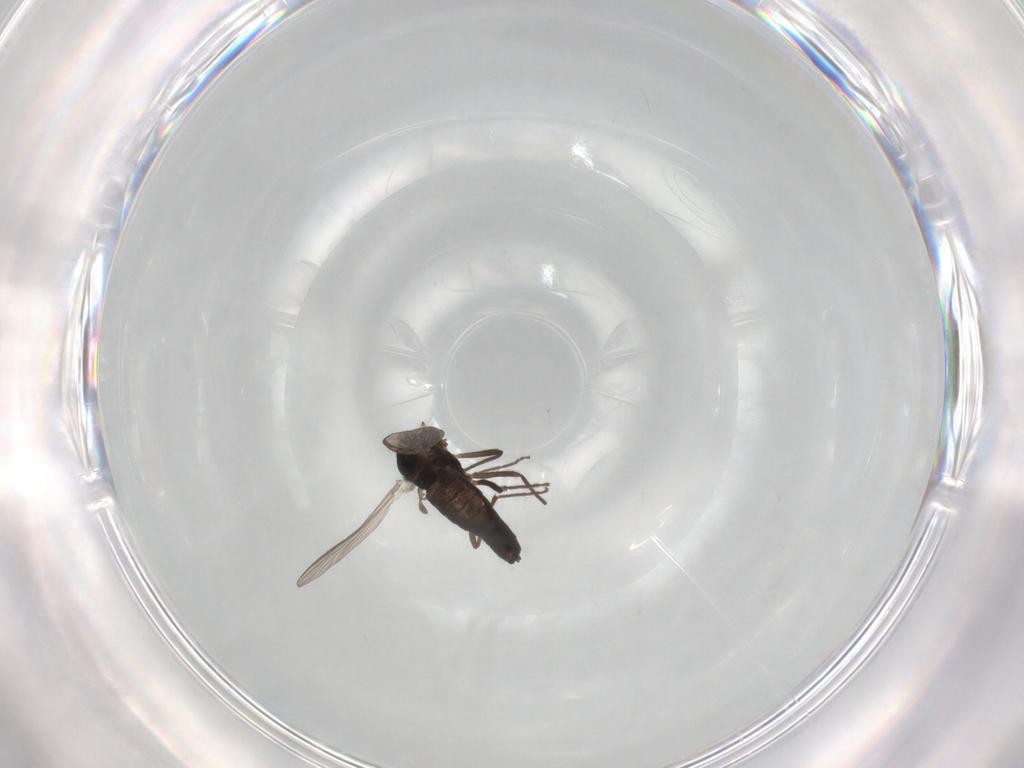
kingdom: Animalia
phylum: Arthropoda
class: Insecta
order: Diptera
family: Chironomidae
